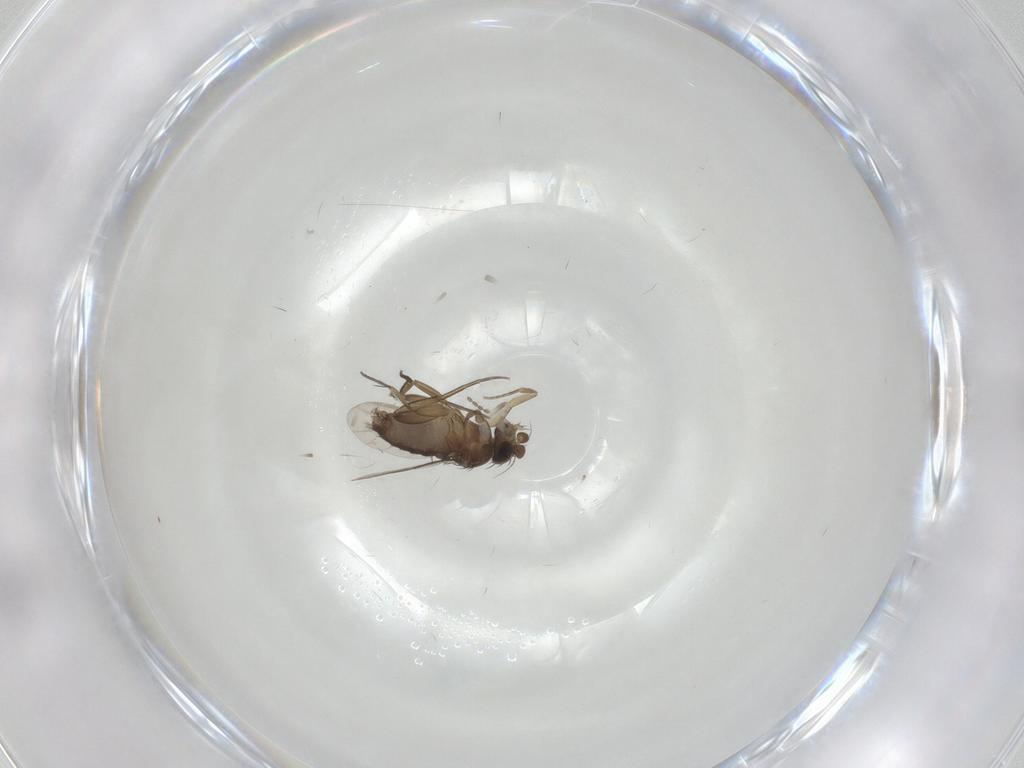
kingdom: Animalia
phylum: Arthropoda
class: Insecta
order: Diptera
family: Phoridae
